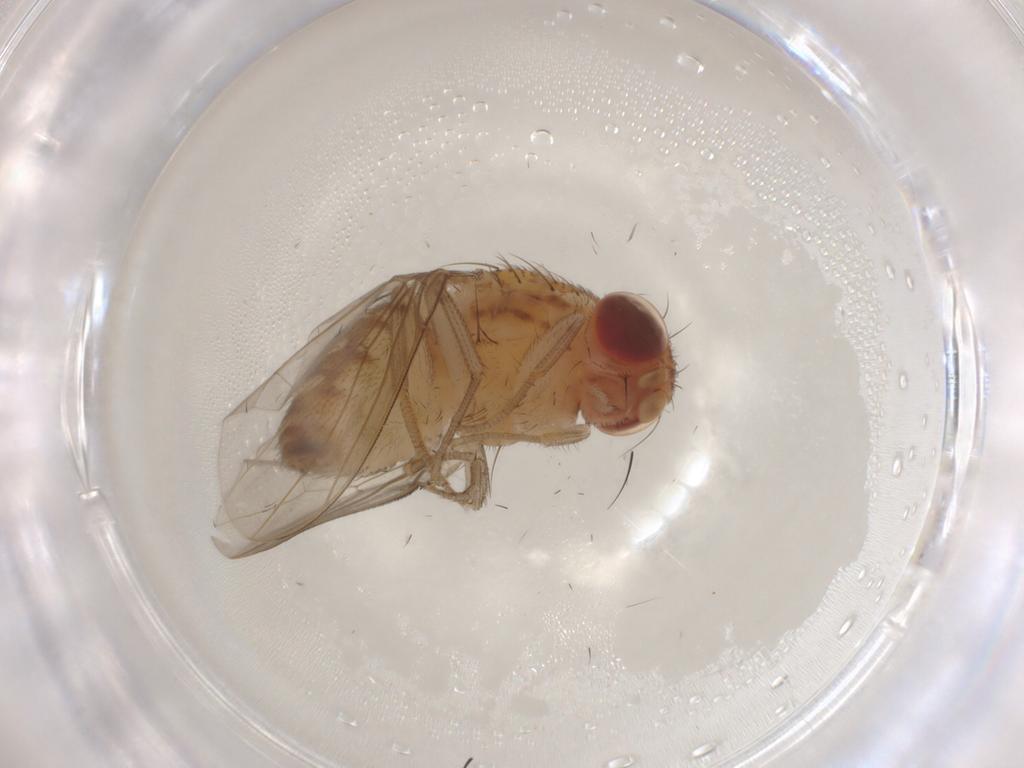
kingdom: Animalia
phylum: Arthropoda
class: Insecta
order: Diptera
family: Drosophilidae
